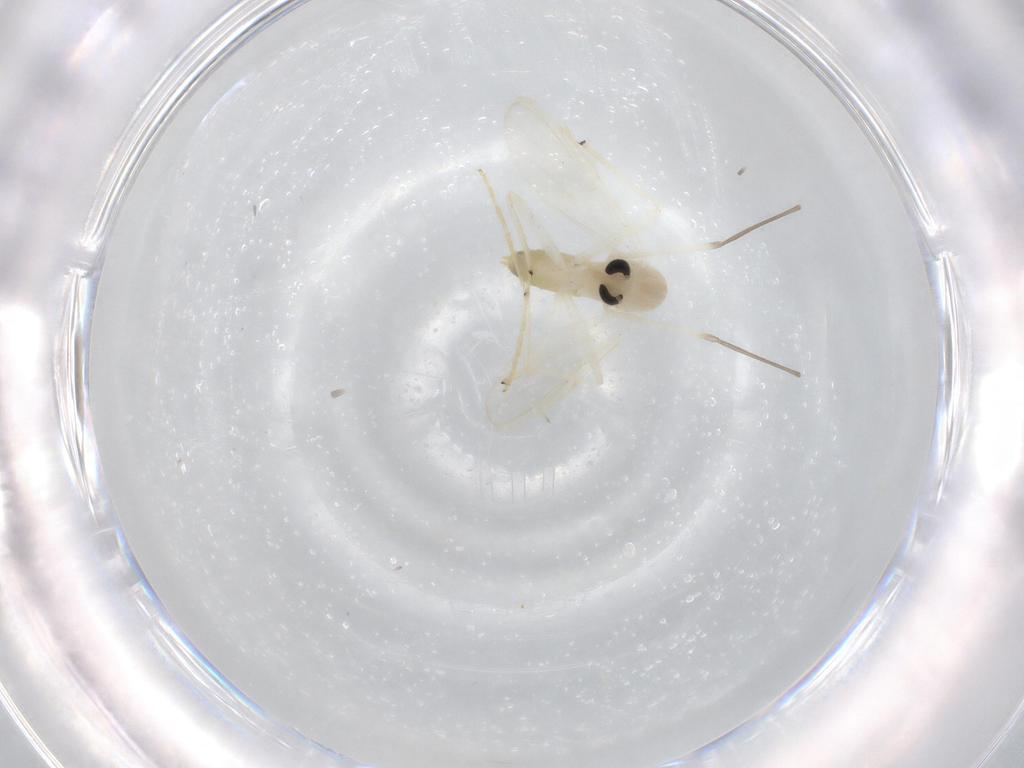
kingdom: Animalia
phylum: Arthropoda
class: Insecta
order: Diptera
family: Chironomidae
